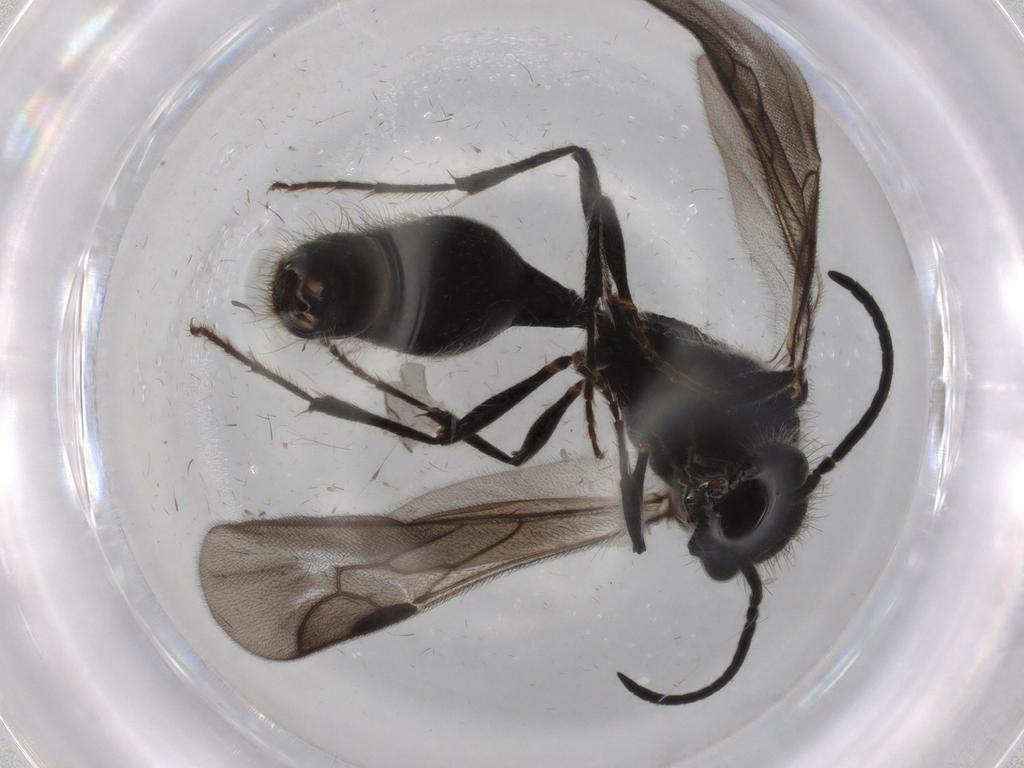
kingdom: Animalia
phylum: Arthropoda
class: Insecta
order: Hymenoptera
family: Mutillidae
